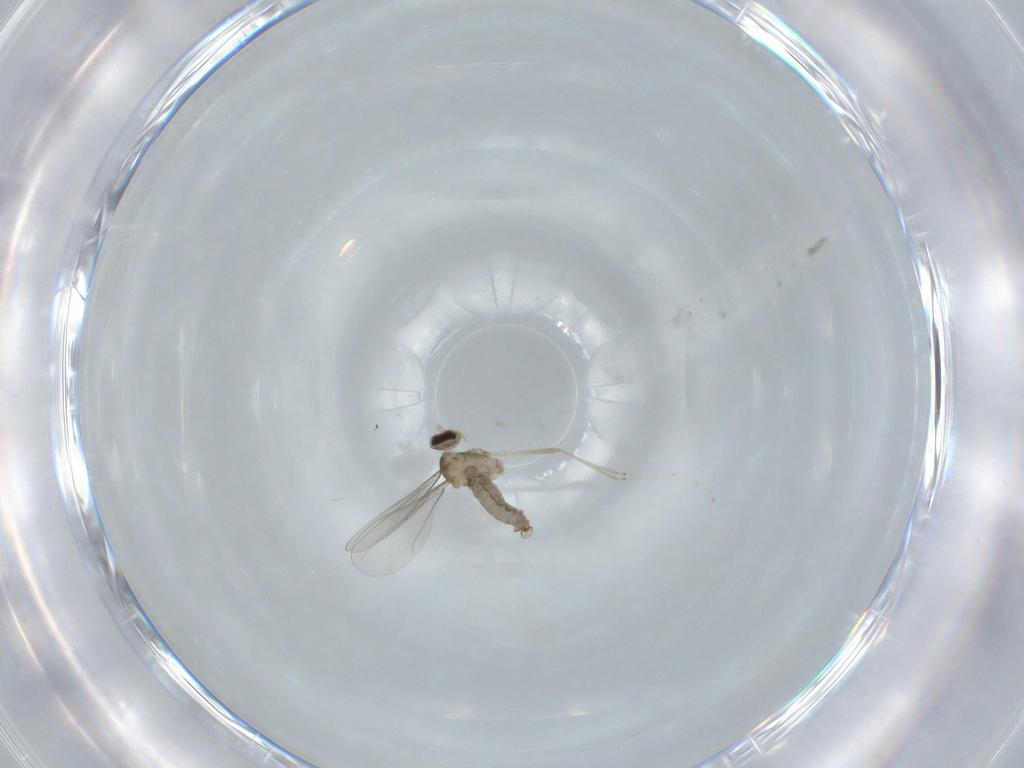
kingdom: Animalia
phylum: Arthropoda
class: Insecta
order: Diptera
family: Cecidomyiidae
